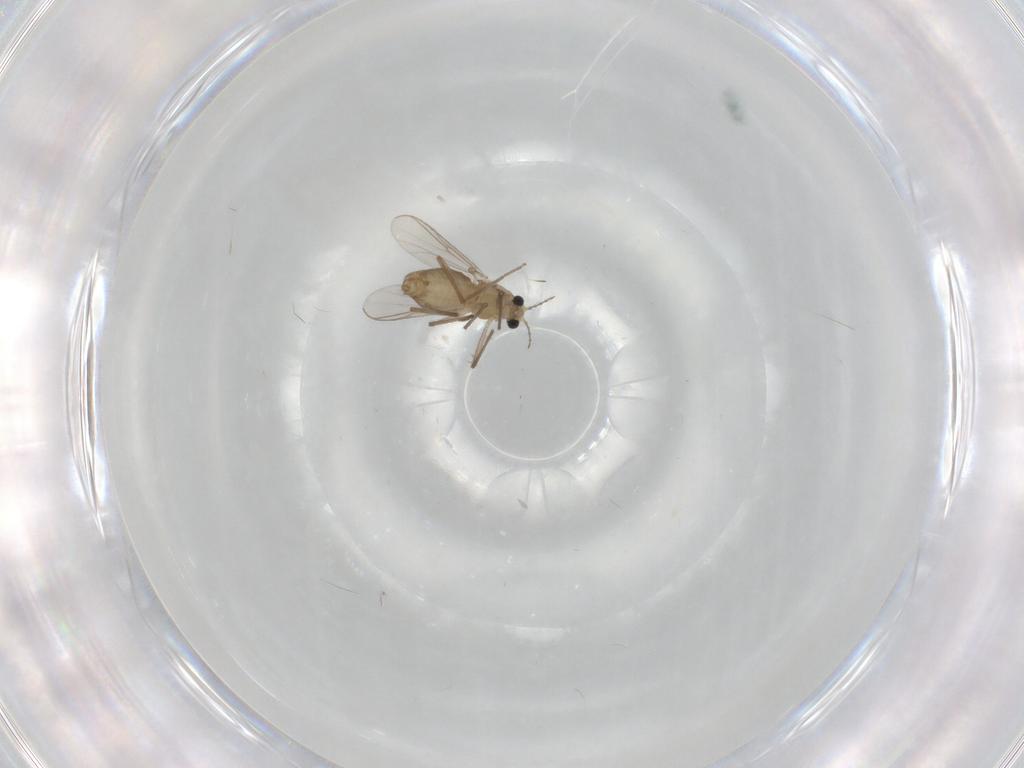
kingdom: Animalia
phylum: Arthropoda
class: Insecta
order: Diptera
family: Chironomidae
